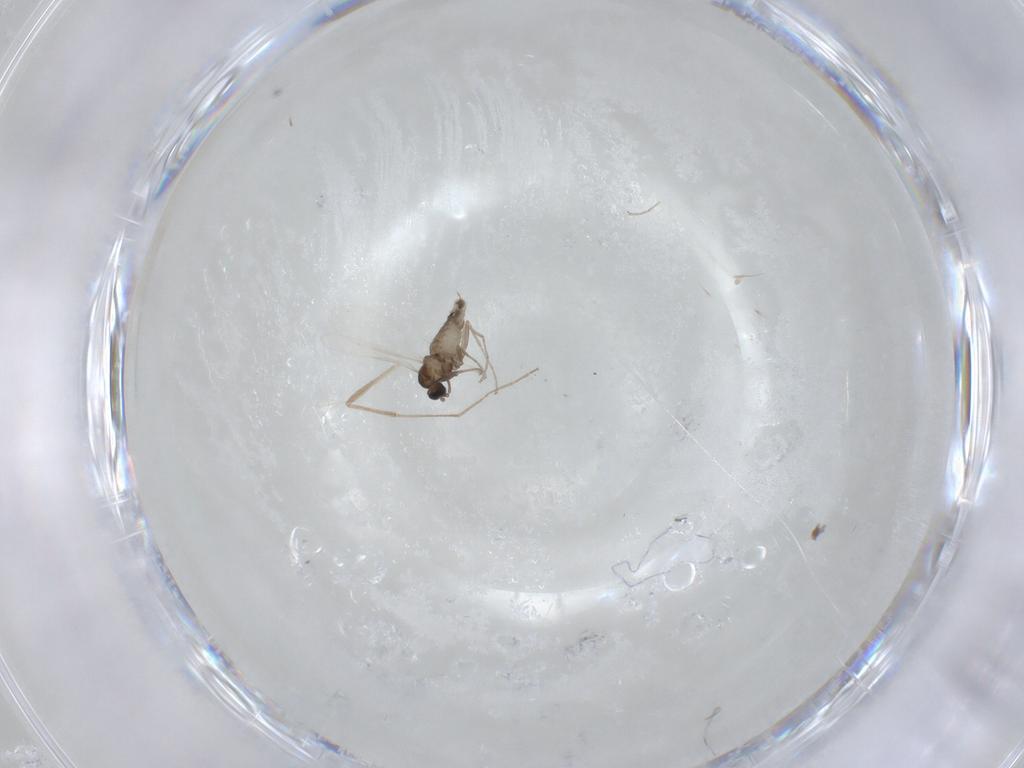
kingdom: Animalia
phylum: Arthropoda
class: Insecta
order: Diptera
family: Cecidomyiidae
